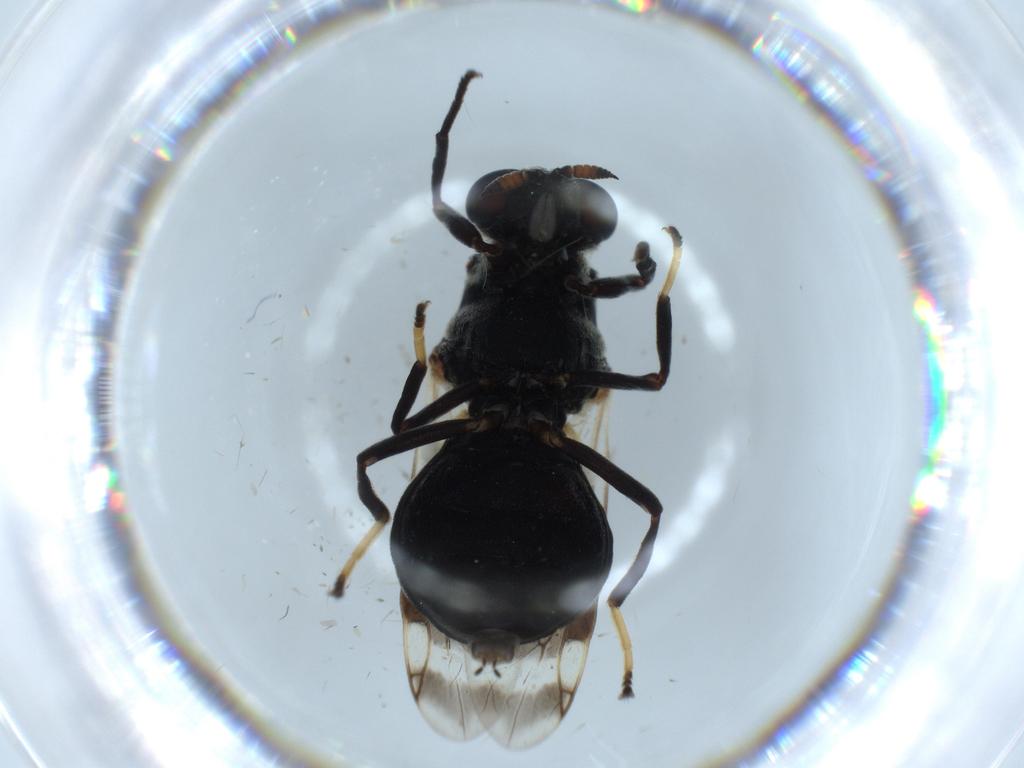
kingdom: Animalia
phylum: Arthropoda
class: Insecta
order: Diptera
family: Stratiomyidae
